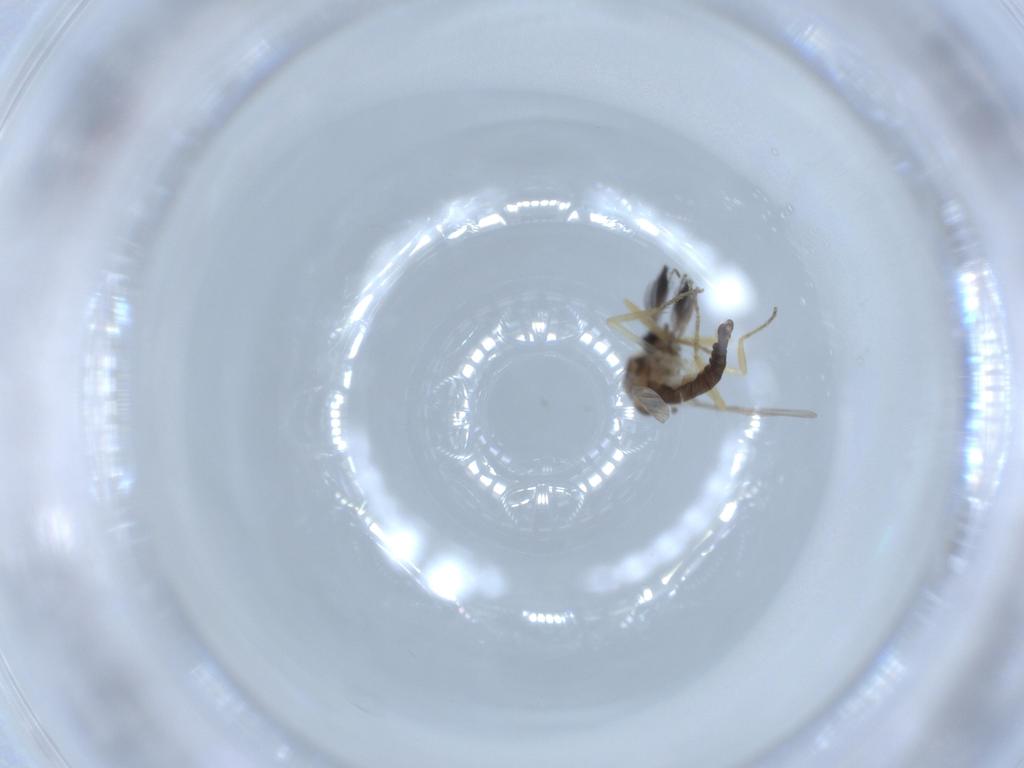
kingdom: Animalia
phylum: Arthropoda
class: Insecta
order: Diptera
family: Ceratopogonidae
